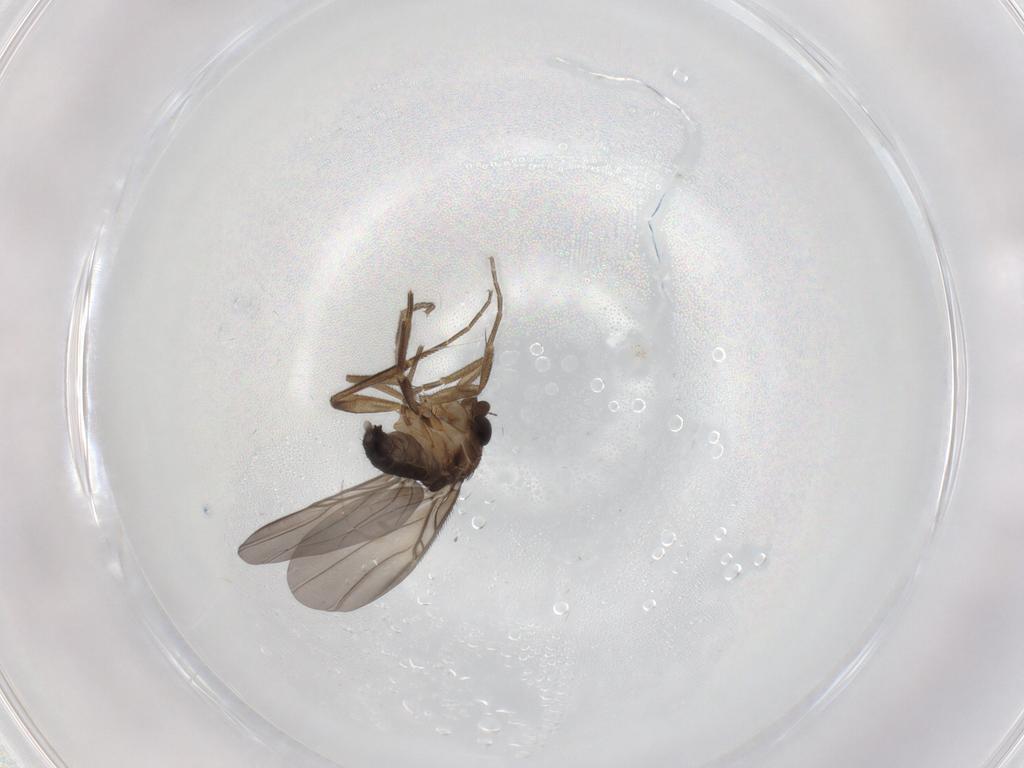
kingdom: Animalia
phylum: Arthropoda
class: Insecta
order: Diptera
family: Phoridae
